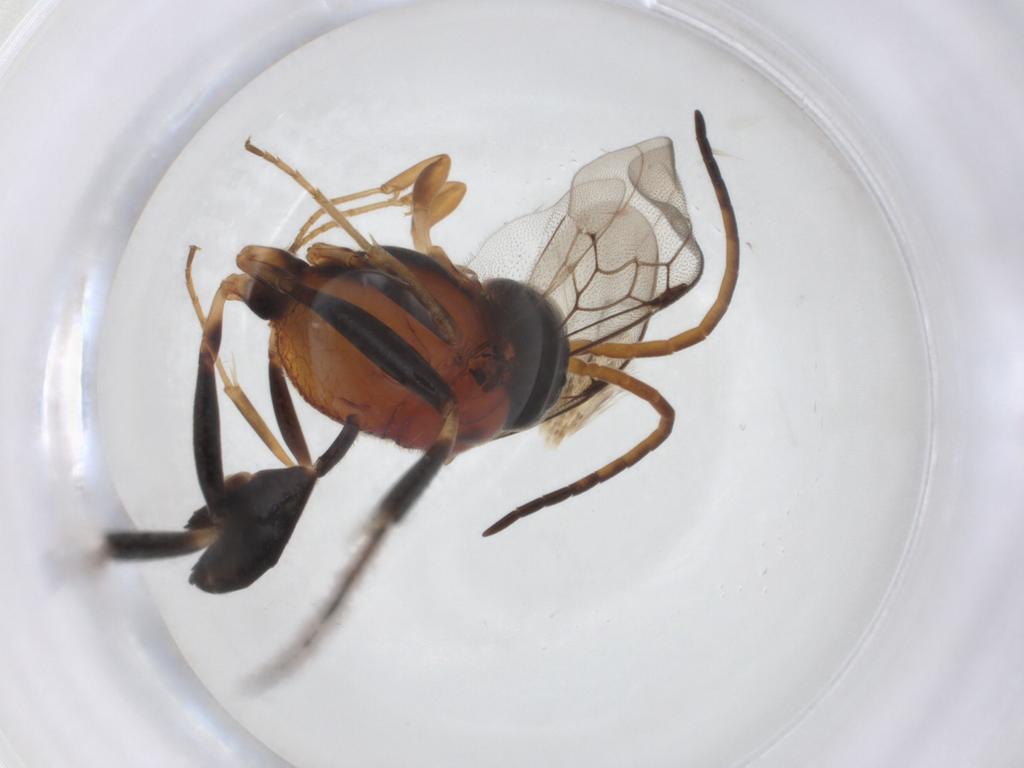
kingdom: Animalia
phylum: Arthropoda
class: Insecta
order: Hymenoptera
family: Evaniidae
